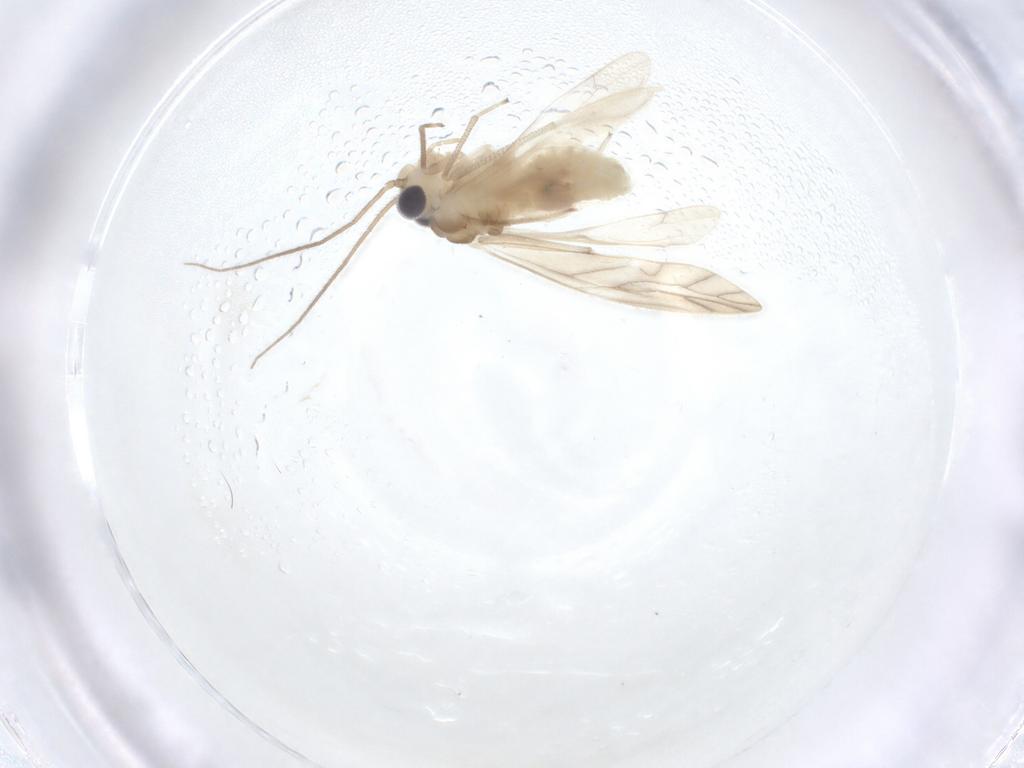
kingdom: Animalia
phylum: Arthropoda
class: Insecta
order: Psocodea
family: Caeciliusidae
